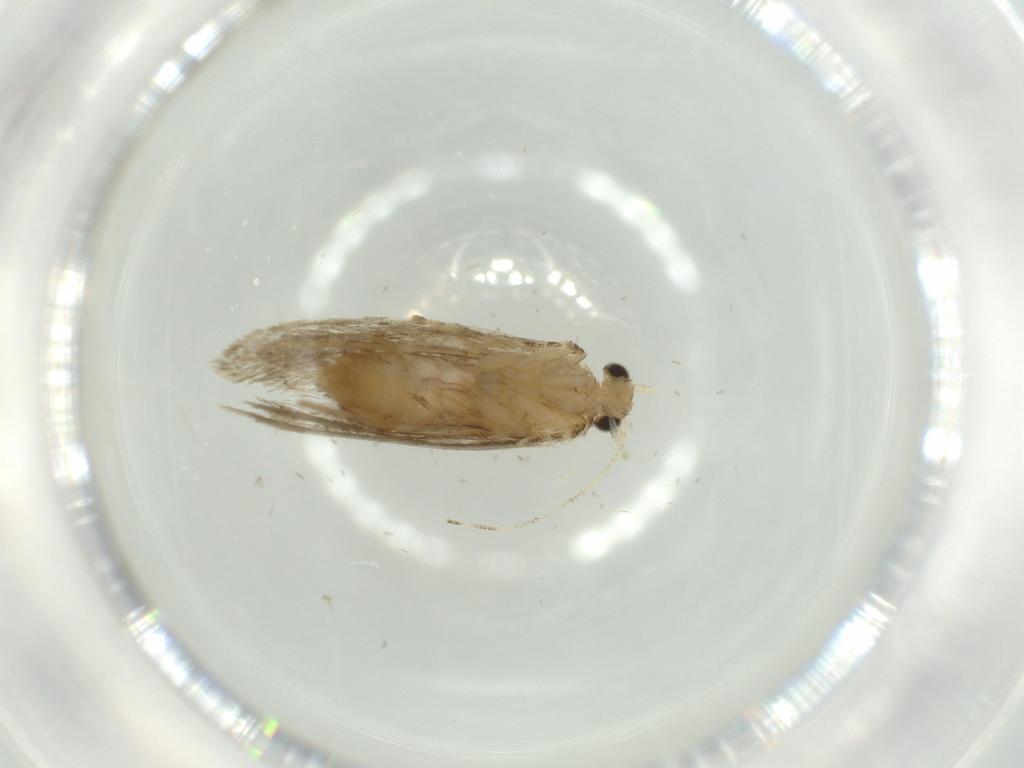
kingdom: Animalia
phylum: Arthropoda
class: Insecta
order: Lepidoptera
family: Tineidae
